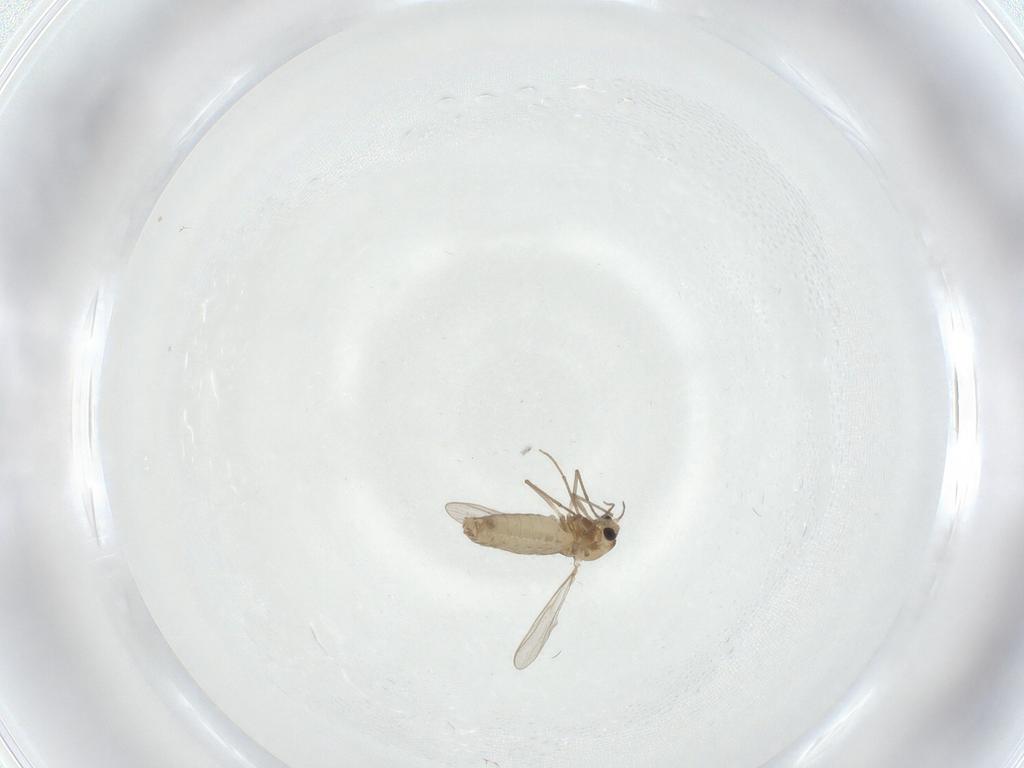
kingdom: Animalia
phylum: Arthropoda
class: Insecta
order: Diptera
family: Chironomidae
